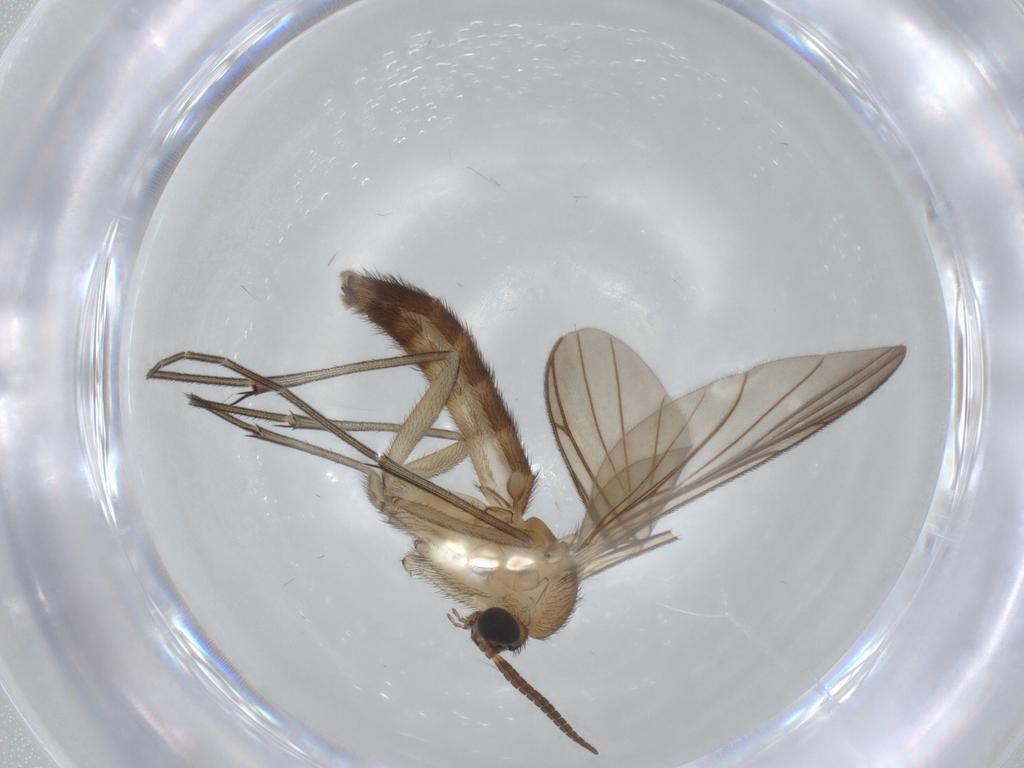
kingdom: Animalia
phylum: Arthropoda
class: Insecta
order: Diptera
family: Keroplatidae
